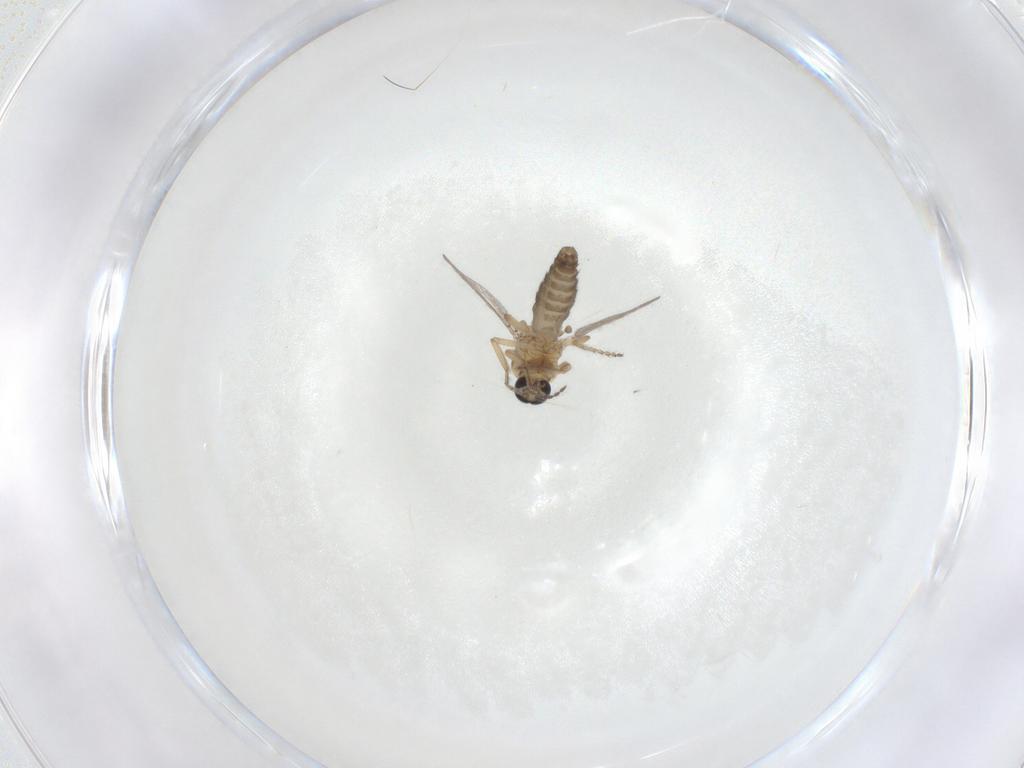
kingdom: Animalia
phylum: Arthropoda
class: Insecta
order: Diptera
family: Ceratopogonidae
